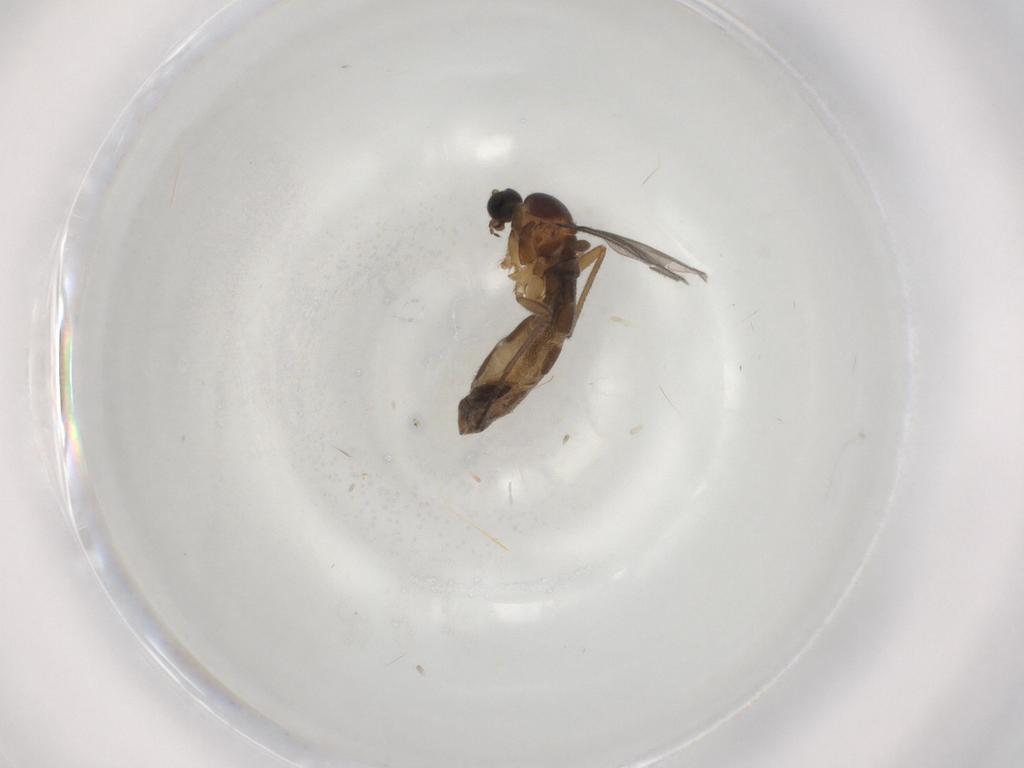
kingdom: Animalia
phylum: Arthropoda
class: Insecta
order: Diptera
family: Sciaridae
